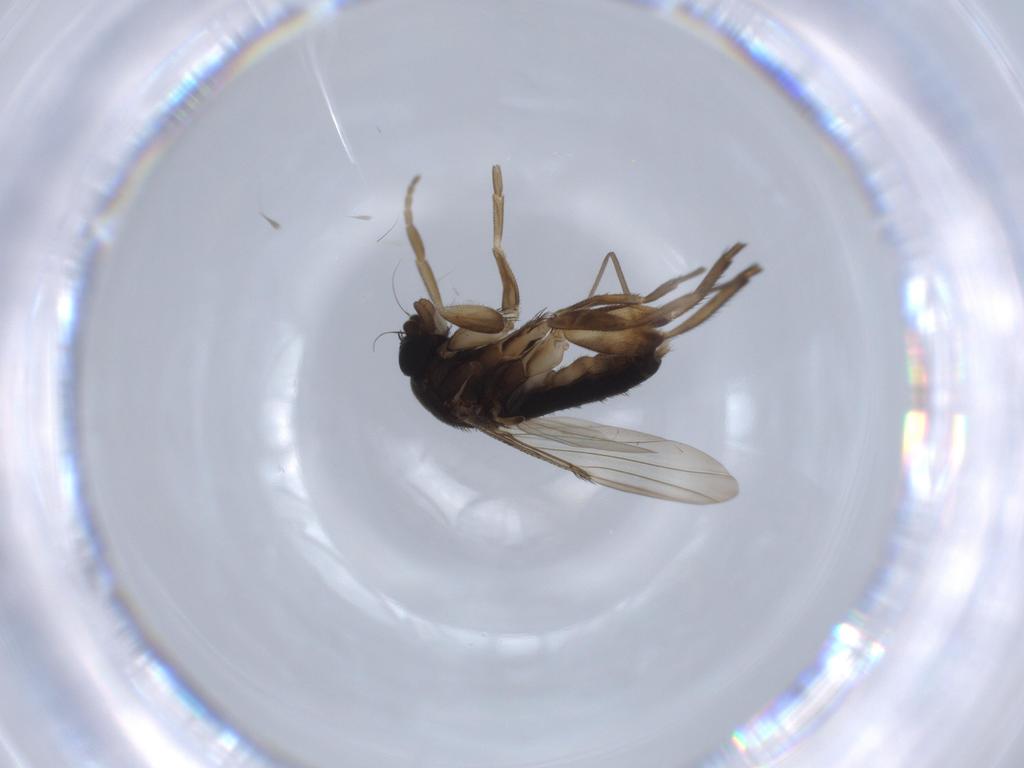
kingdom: Animalia
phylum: Arthropoda
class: Insecta
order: Diptera
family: Phoridae
